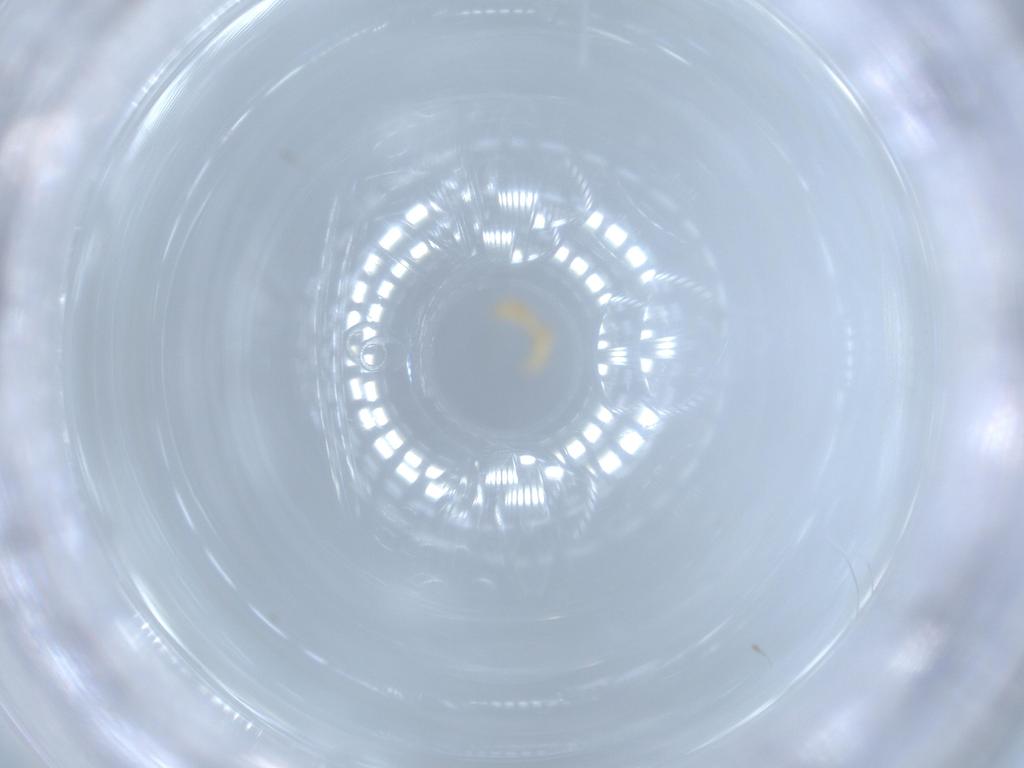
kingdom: Animalia
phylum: Arthropoda
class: Insecta
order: Coleoptera
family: Cantharidae
